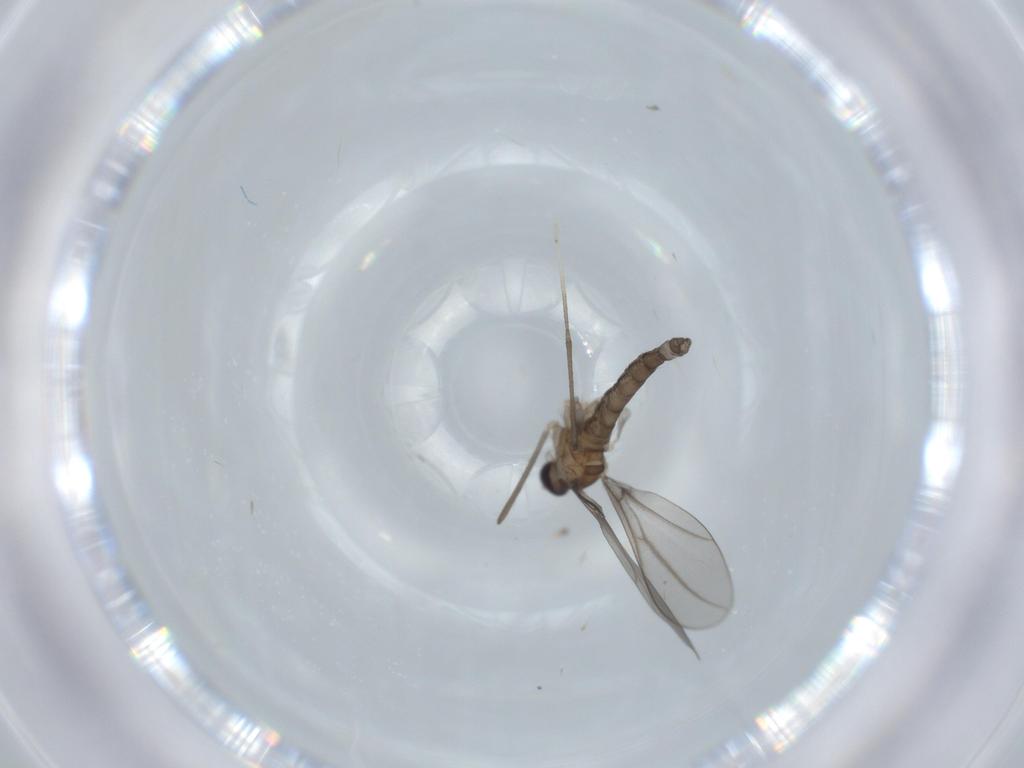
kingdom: Animalia
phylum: Arthropoda
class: Insecta
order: Diptera
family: Cecidomyiidae
